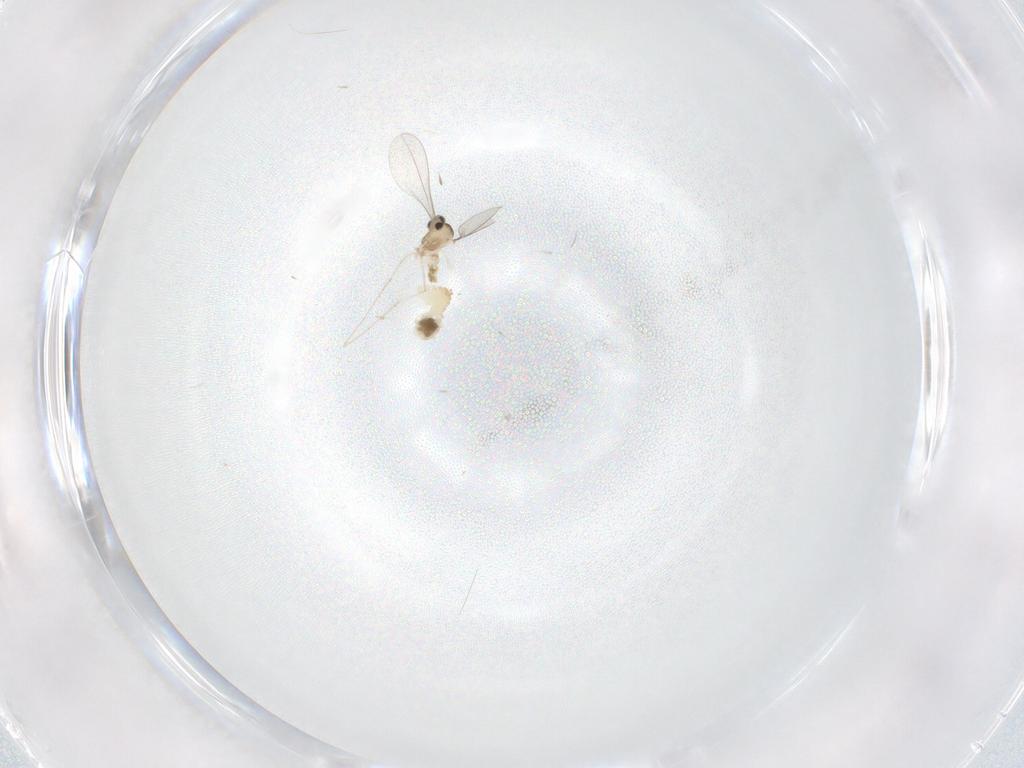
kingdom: Animalia
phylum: Arthropoda
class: Insecta
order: Diptera
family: Cecidomyiidae
